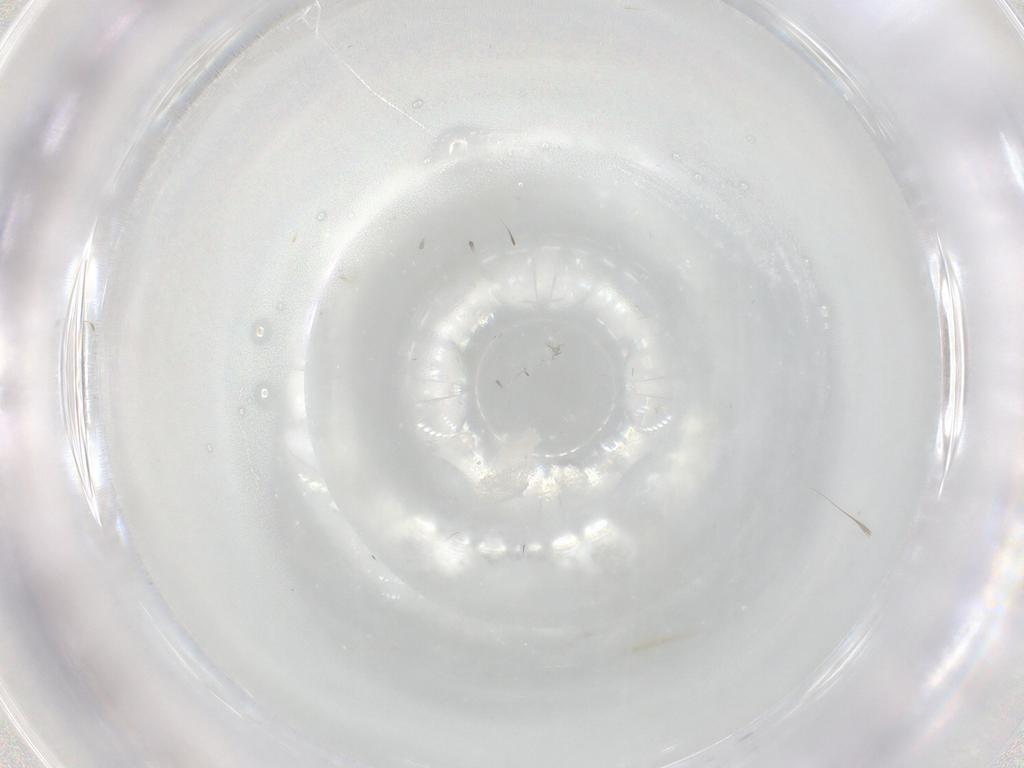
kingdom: Animalia
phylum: Arthropoda
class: Insecta
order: Diptera
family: Cecidomyiidae
